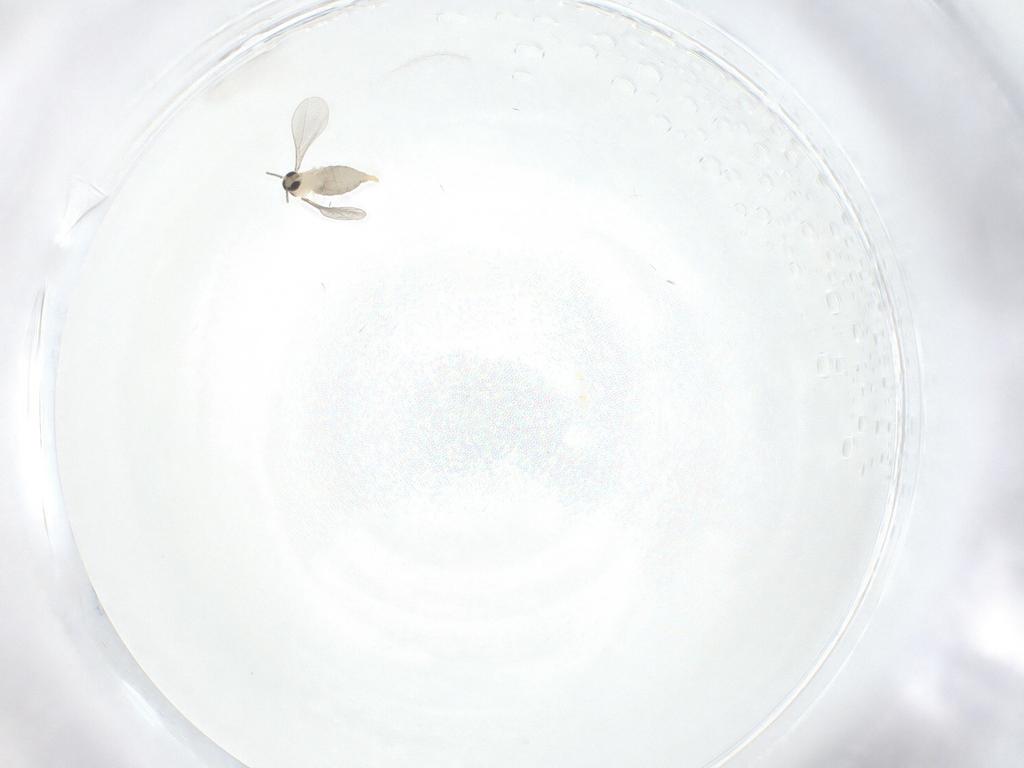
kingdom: Animalia
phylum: Arthropoda
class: Insecta
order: Diptera
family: Cecidomyiidae
